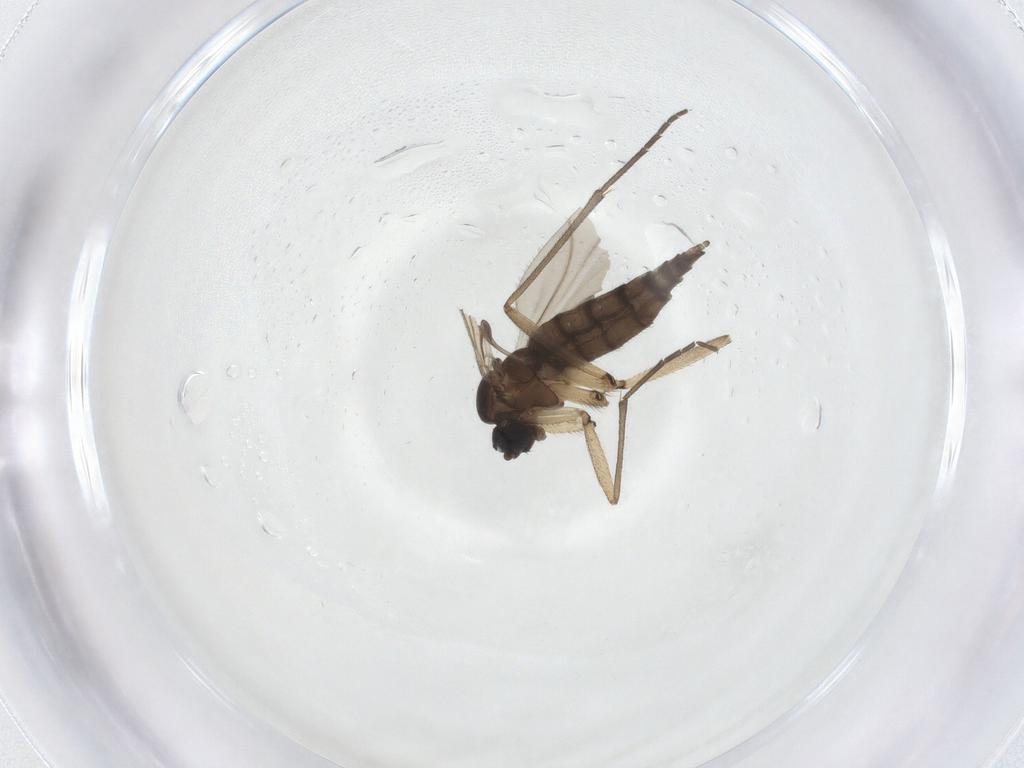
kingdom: Animalia
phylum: Arthropoda
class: Insecta
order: Diptera
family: Sciaridae
